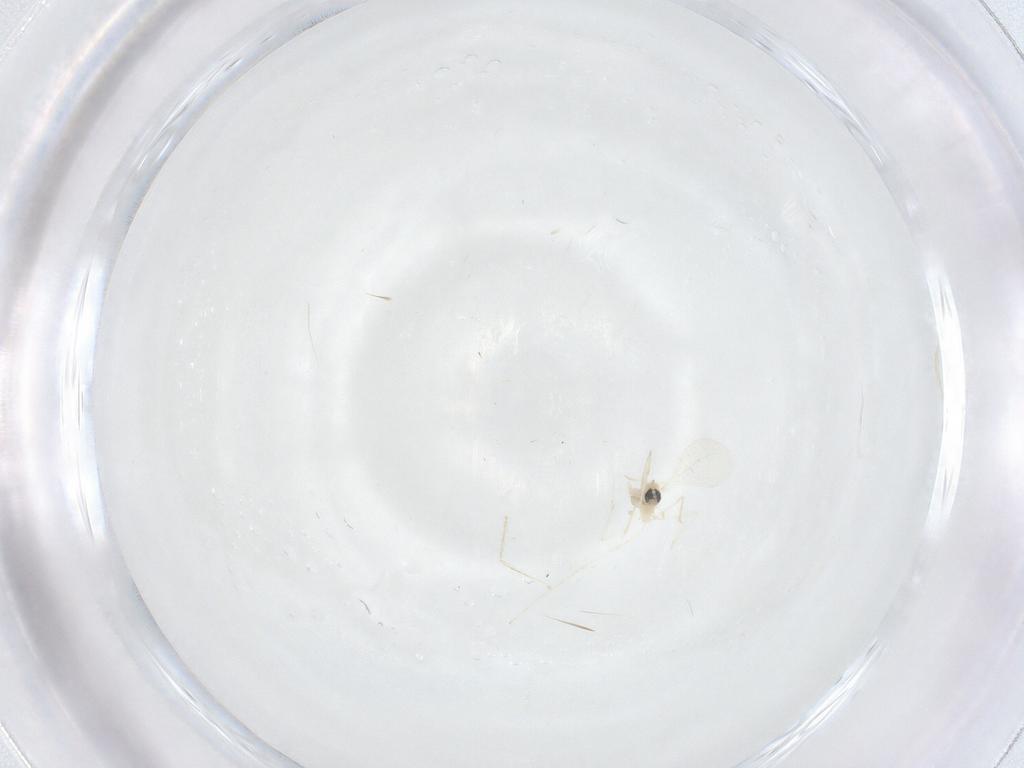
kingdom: Animalia
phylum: Arthropoda
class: Insecta
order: Diptera
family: Cecidomyiidae
